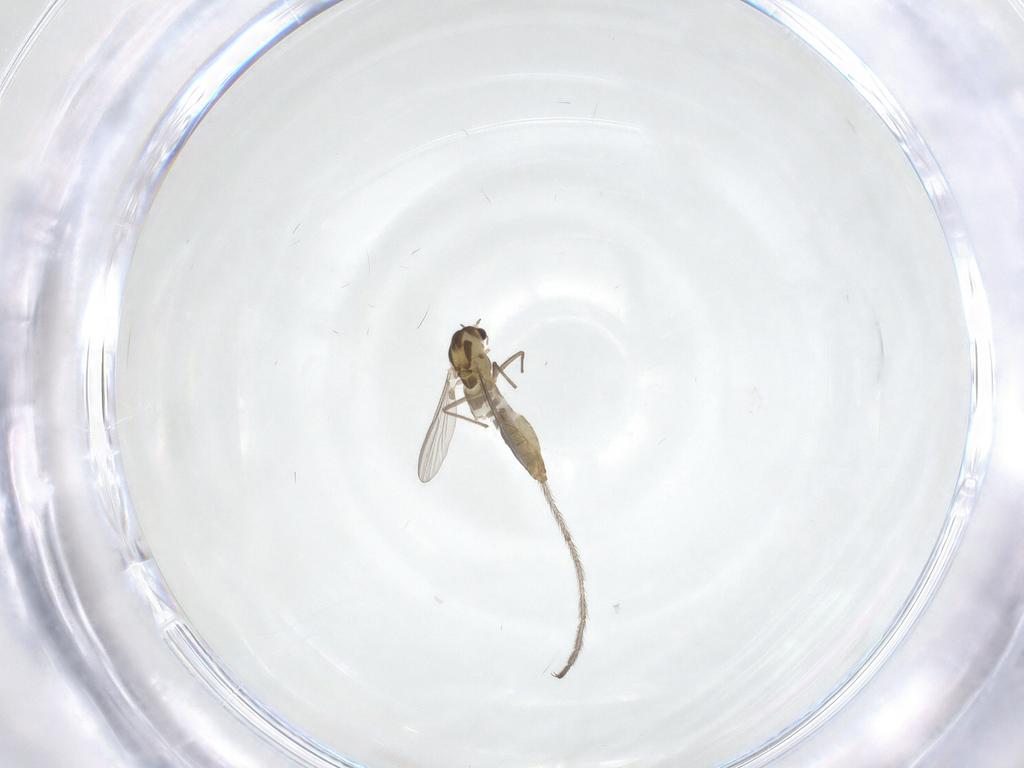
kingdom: Animalia
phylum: Arthropoda
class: Insecta
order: Diptera
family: Chironomidae
